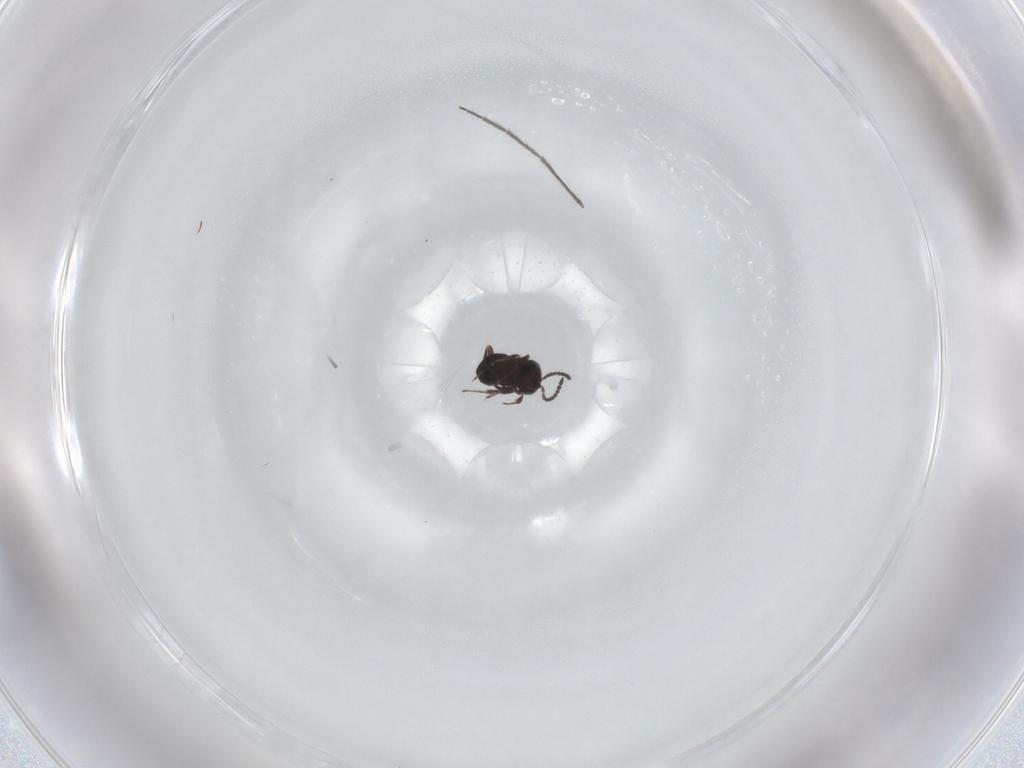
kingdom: Animalia
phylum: Arthropoda
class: Insecta
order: Hymenoptera
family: Scelionidae
